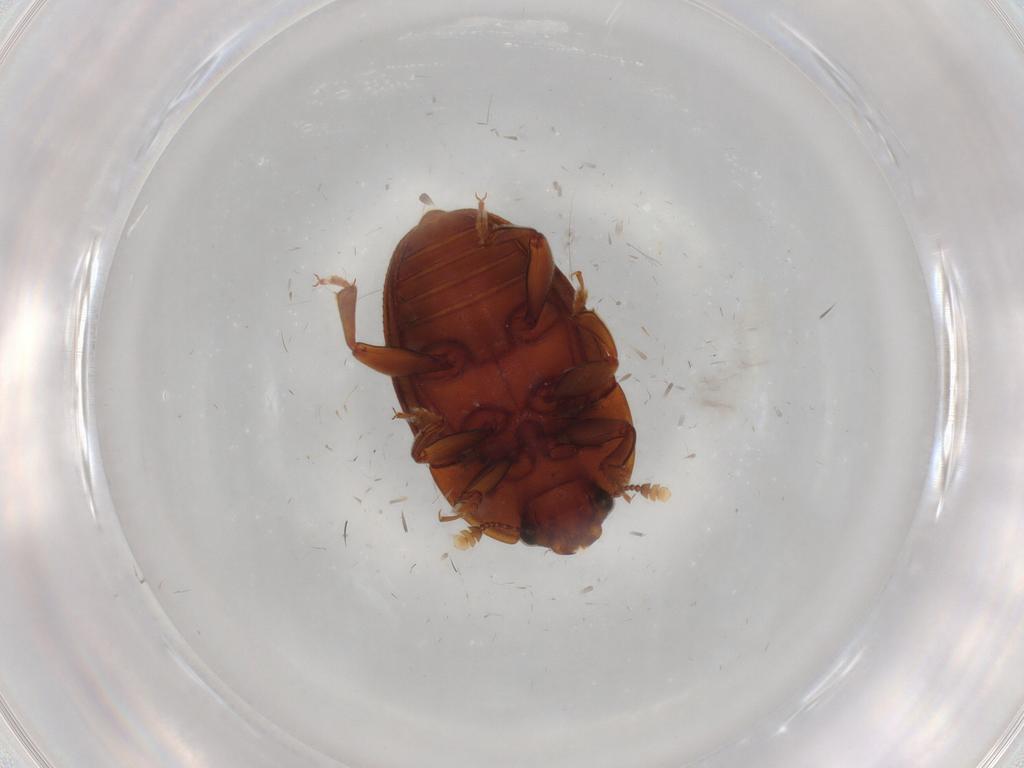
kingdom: Animalia
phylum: Arthropoda
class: Insecta
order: Coleoptera
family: Chrysomelidae
